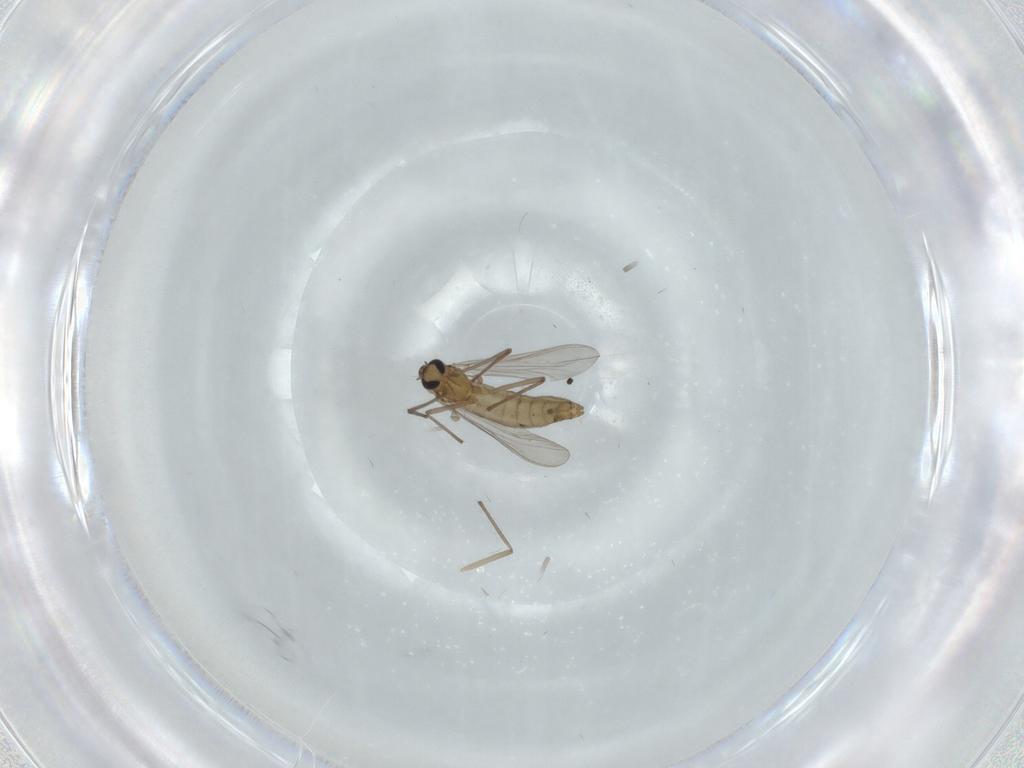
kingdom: Animalia
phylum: Arthropoda
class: Insecta
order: Diptera
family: Chironomidae
